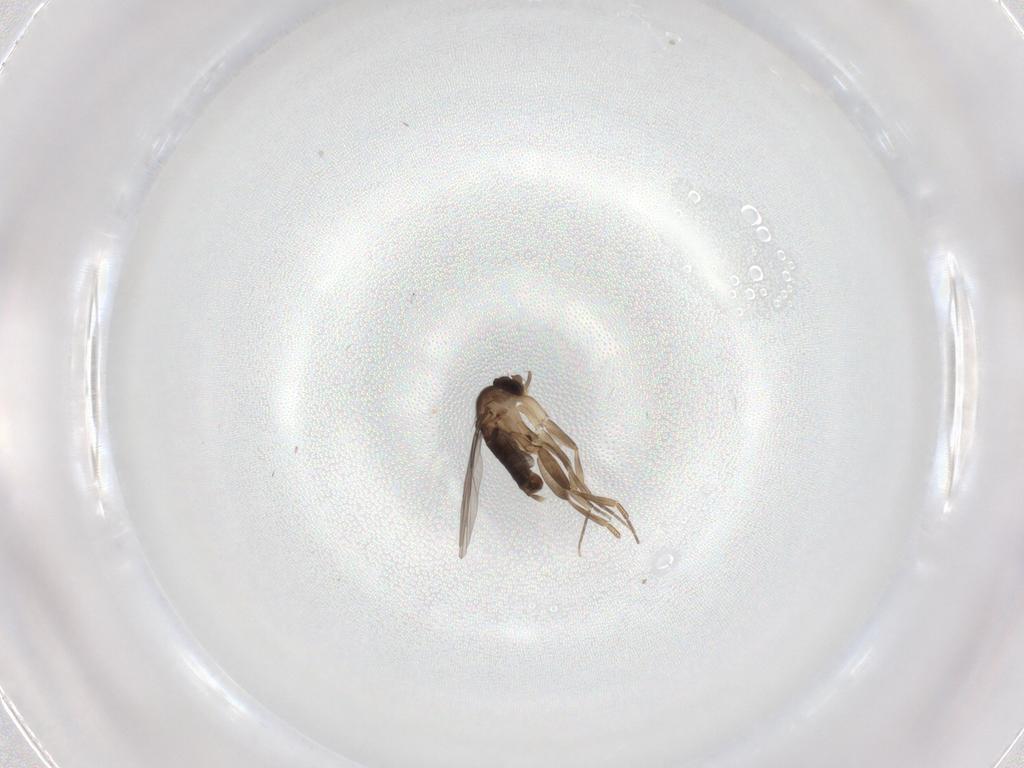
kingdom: Animalia
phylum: Arthropoda
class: Insecta
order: Diptera
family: Phoridae
